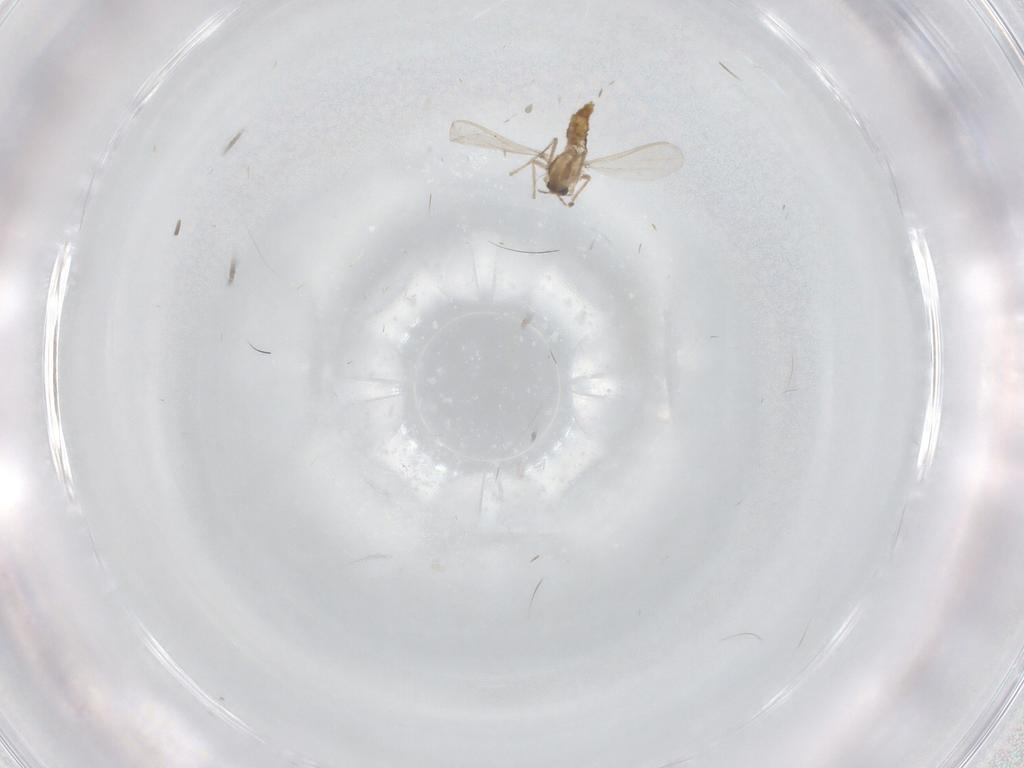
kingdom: Animalia
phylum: Arthropoda
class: Insecta
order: Diptera
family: Chironomidae
